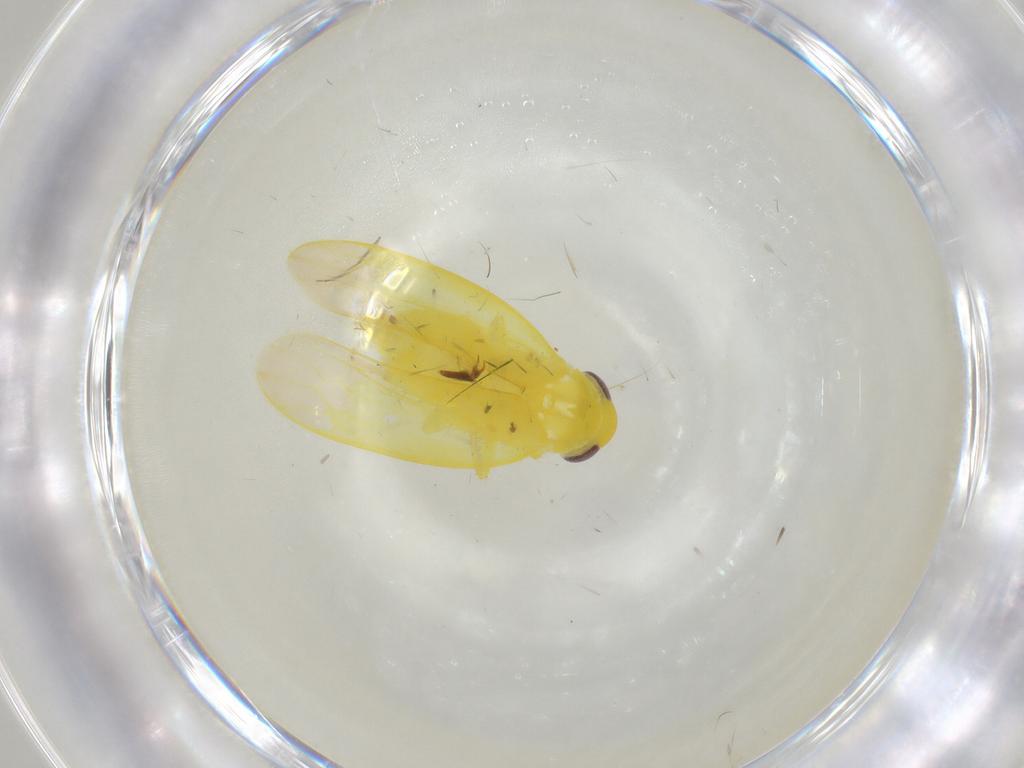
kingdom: Animalia
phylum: Arthropoda
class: Insecta
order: Hemiptera
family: Cicadellidae
